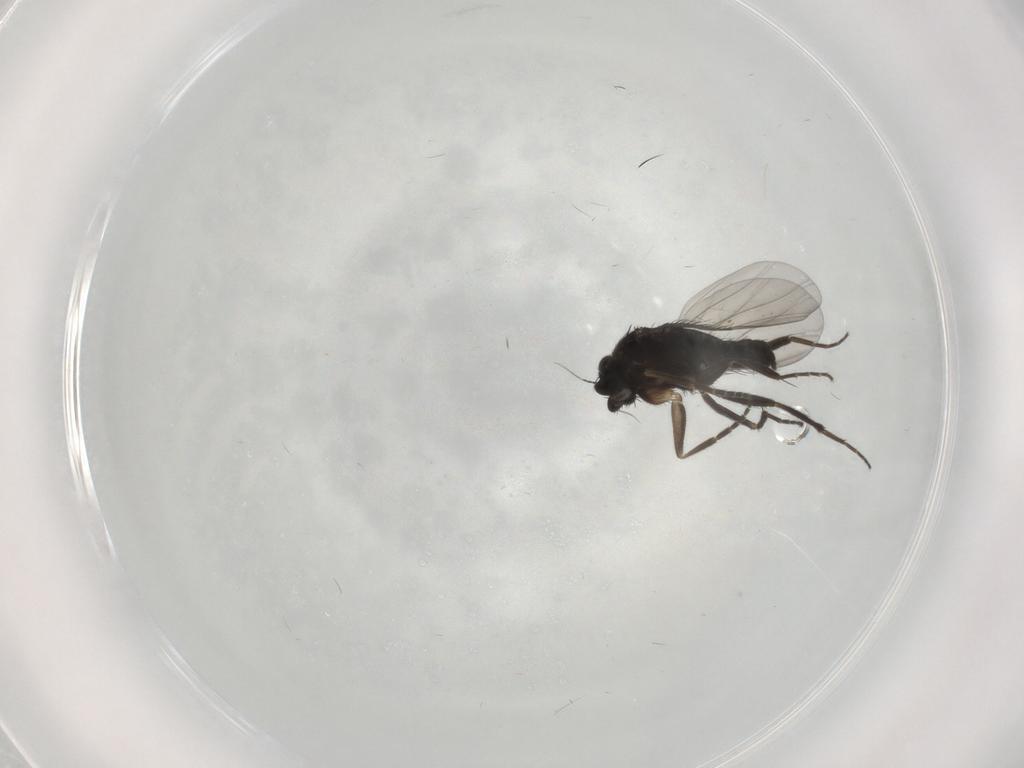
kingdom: Animalia
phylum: Arthropoda
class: Insecta
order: Diptera
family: Phoridae
